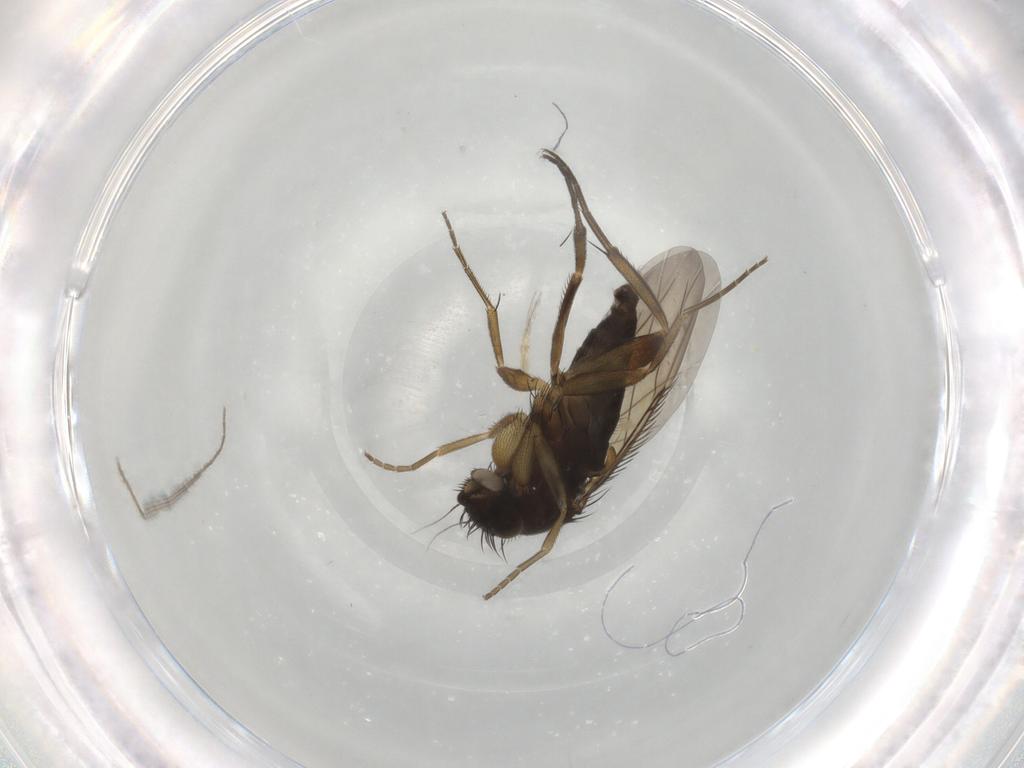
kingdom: Animalia
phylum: Arthropoda
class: Insecta
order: Diptera
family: Phoridae
